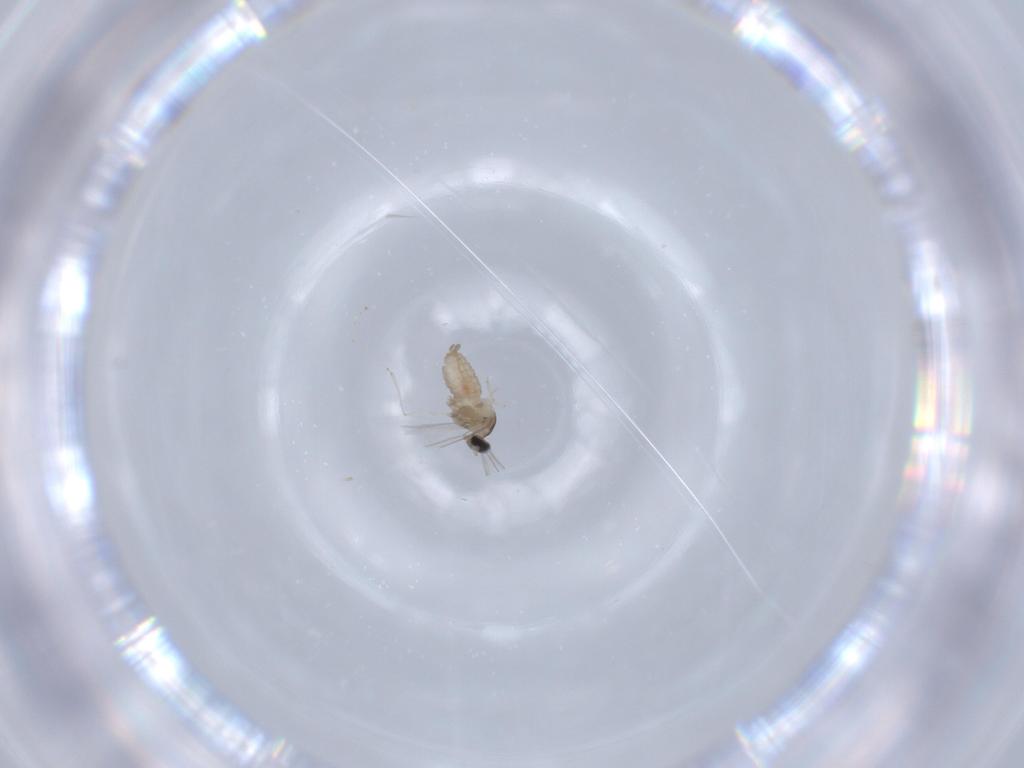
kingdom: Animalia
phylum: Arthropoda
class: Insecta
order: Diptera
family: Cecidomyiidae
